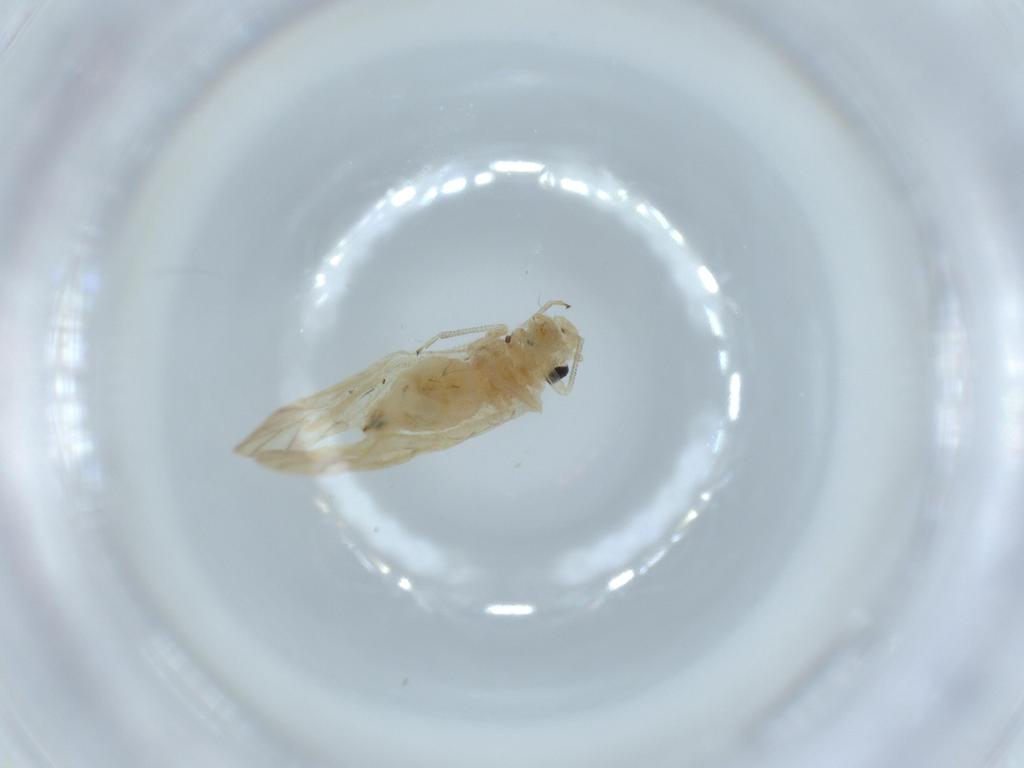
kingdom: Animalia
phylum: Arthropoda
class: Insecta
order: Psocodea
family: Caeciliusidae
